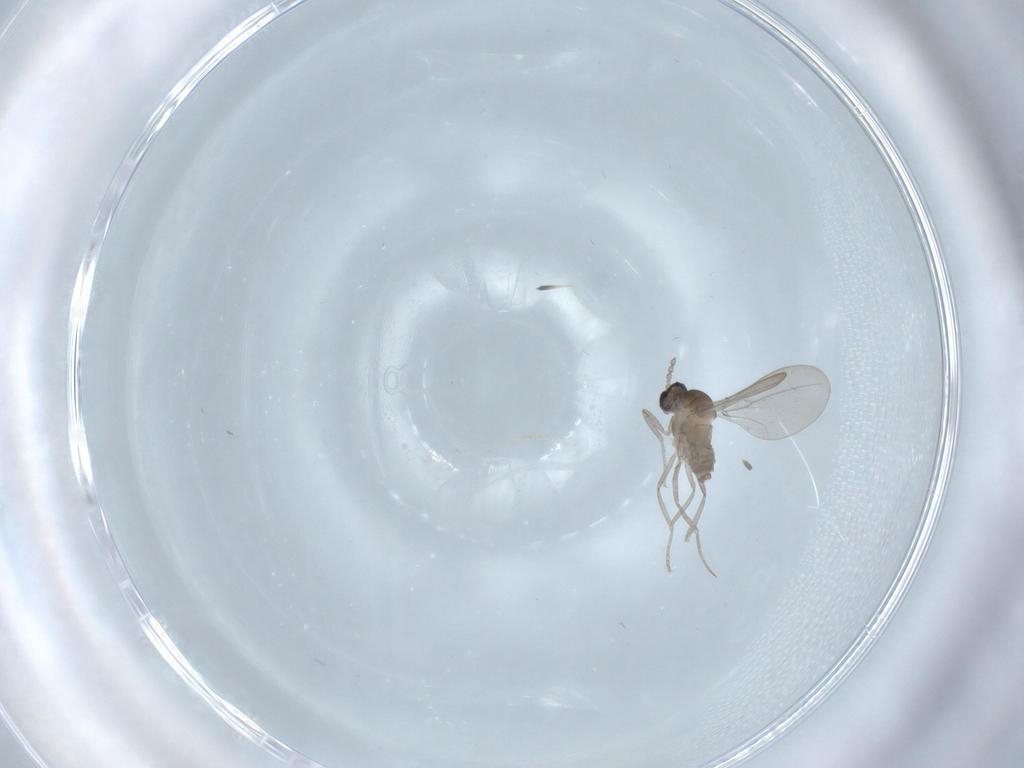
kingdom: Animalia
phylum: Arthropoda
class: Insecta
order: Diptera
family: Cecidomyiidae
